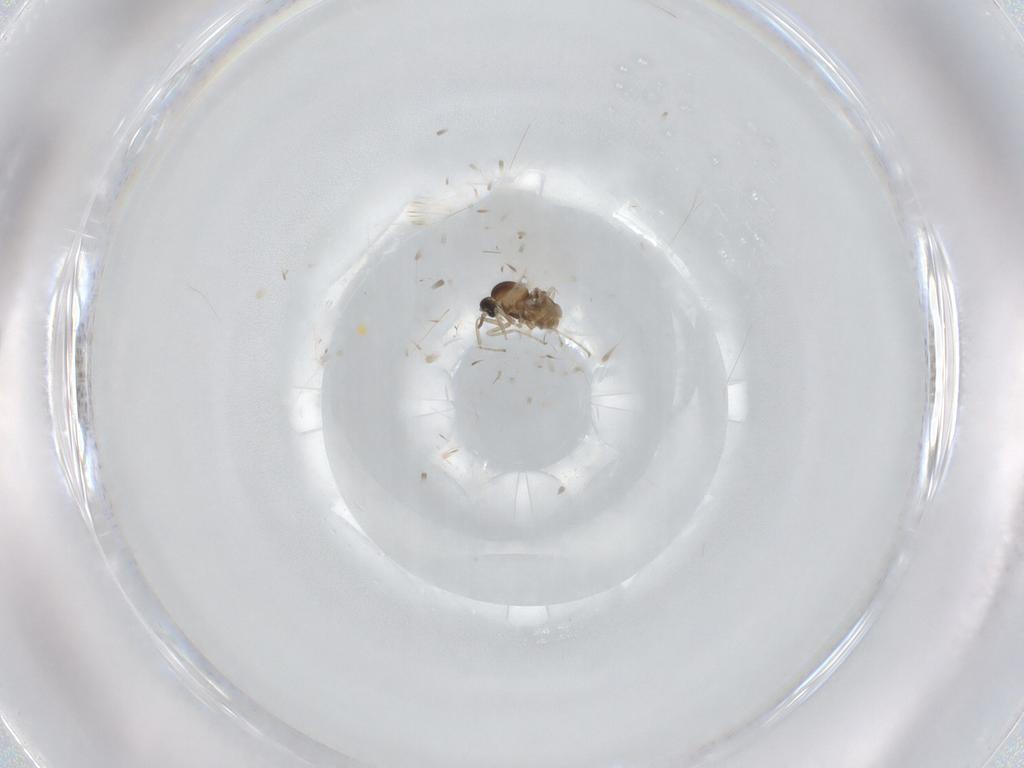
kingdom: Animalia
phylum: Arthropoda
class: Insecta
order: Diptera
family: Cecidomyiidae
